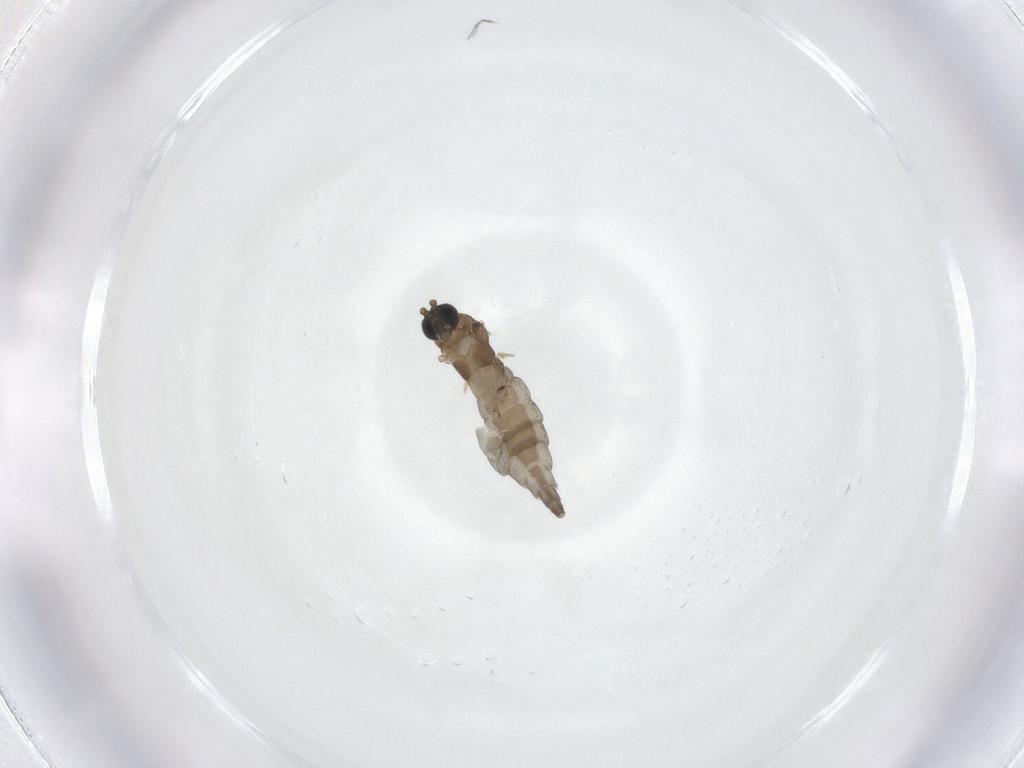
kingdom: Animalia
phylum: Arthropoda
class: Insecta
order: Diptera
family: Sciaridae
